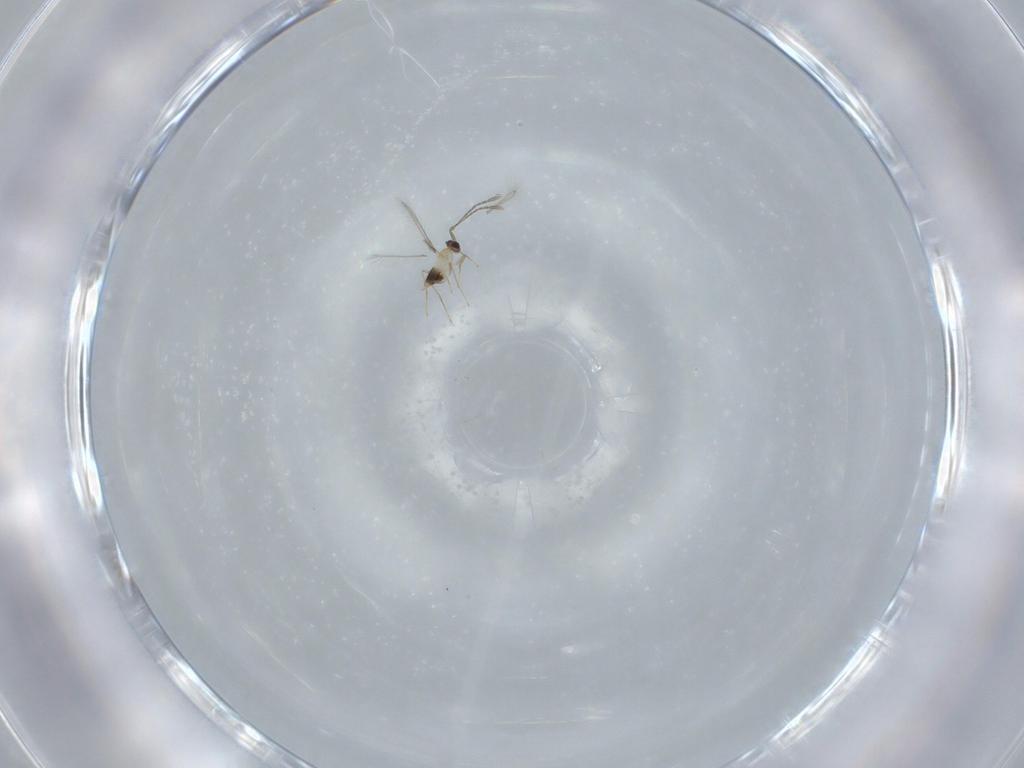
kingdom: Animalia
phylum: Arthropoda
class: Insecta
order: Hymenoptera
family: Mymaridae
